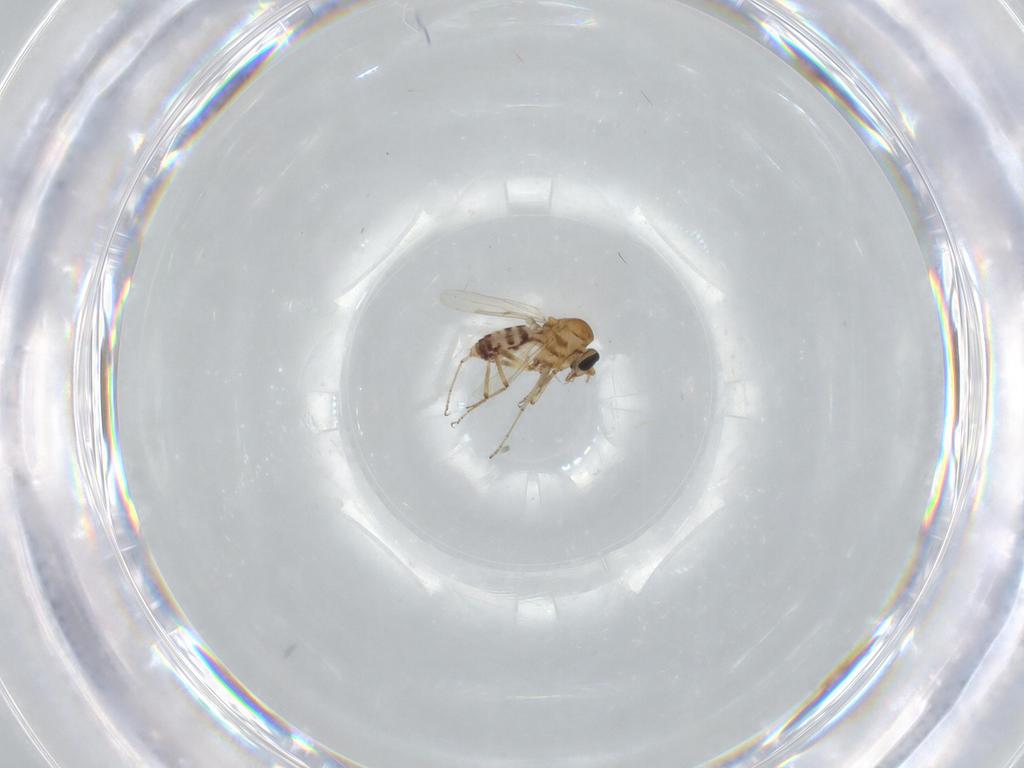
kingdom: Animalia
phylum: Arthropoda
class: Insecta
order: Diptera
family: Ceratopogonidae
